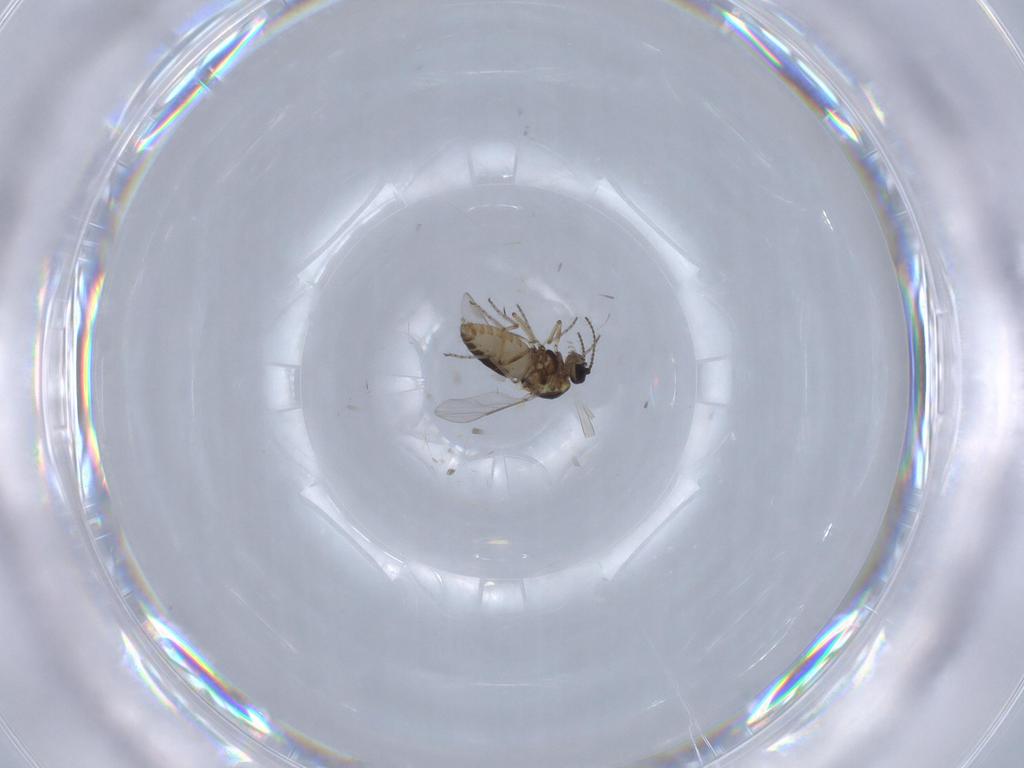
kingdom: Animalia
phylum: Arthropoda
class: Insecta
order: Diptera
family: Ceratopogonidae
